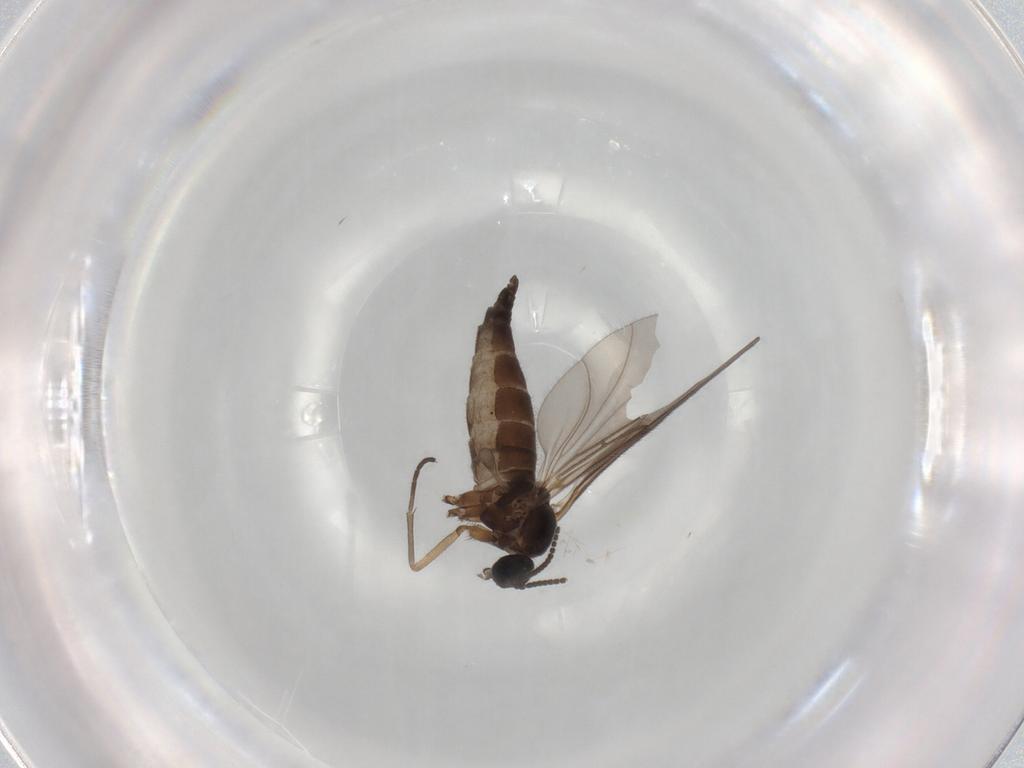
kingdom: Animalia
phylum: Arthropoda
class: Insecta
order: Diptera
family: Sciaridae
